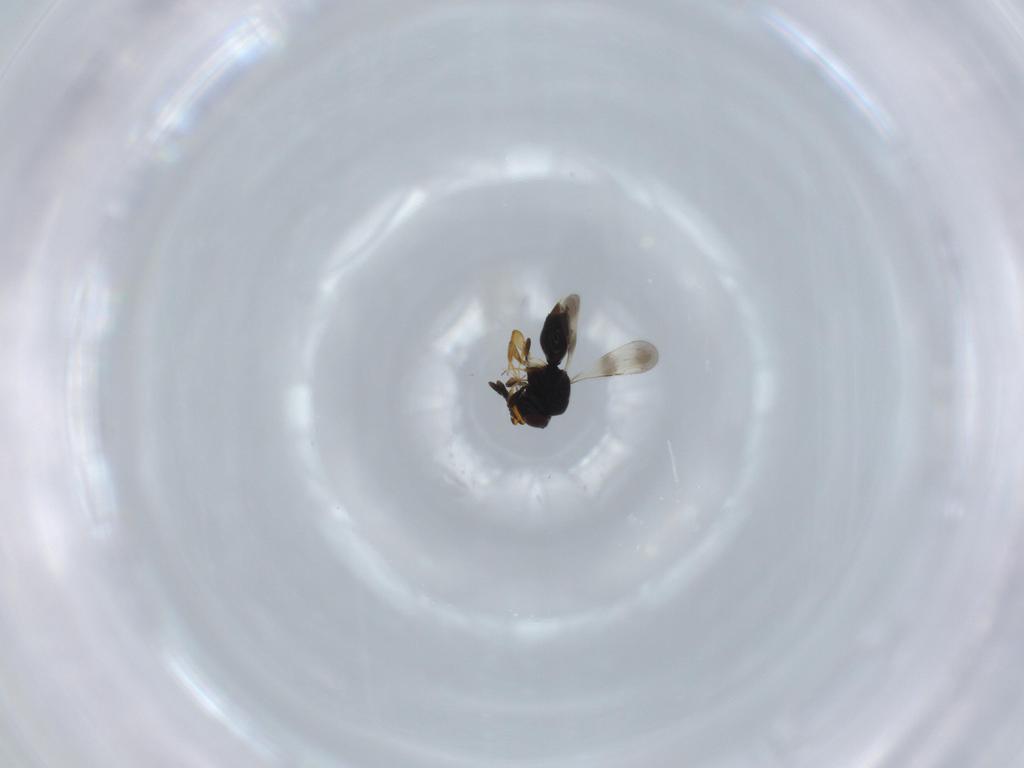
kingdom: Animalia
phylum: Arthropoda
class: Insecta
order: Hymenoptera
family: Ceraphronidae
